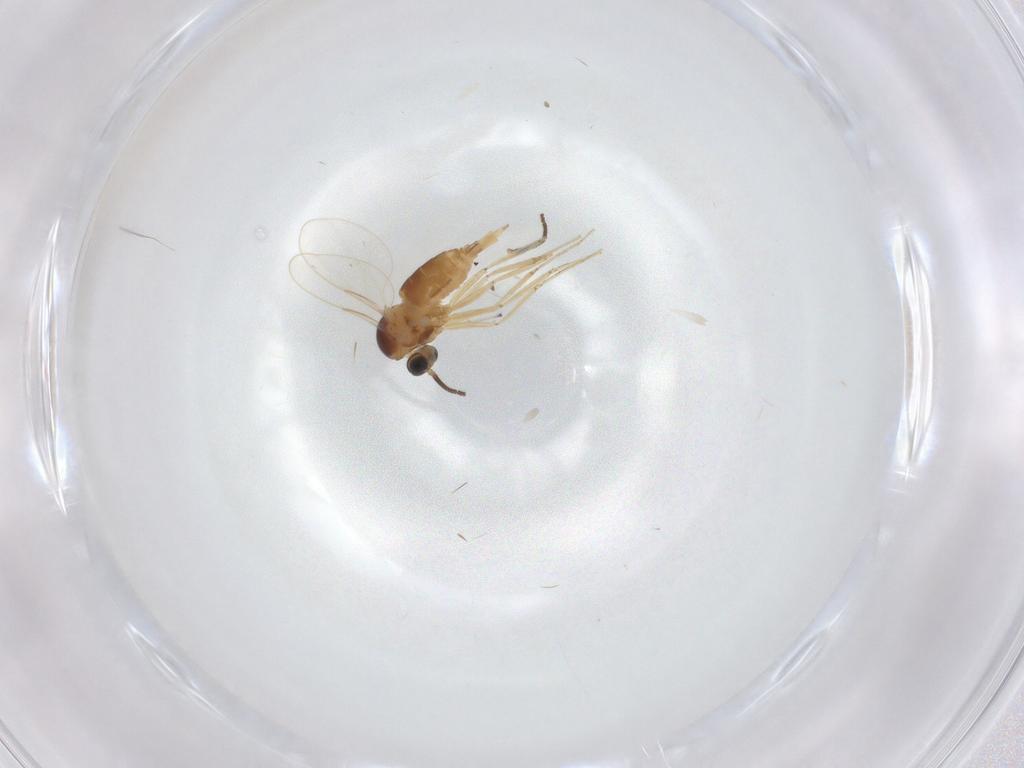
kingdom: Animalia
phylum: Arthropoda
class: Insecta
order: Diptera
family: Cecidomyiidae
